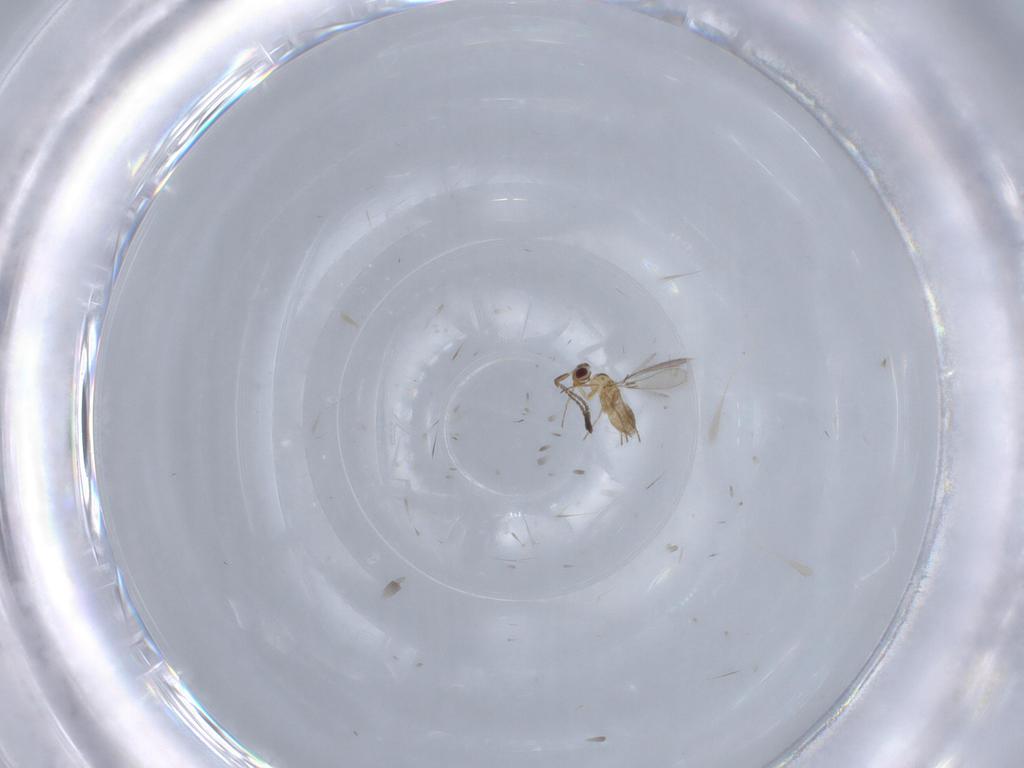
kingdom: Animalia
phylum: Arthropoda
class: Insecta
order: Hymenoptera
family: Mymaridae
